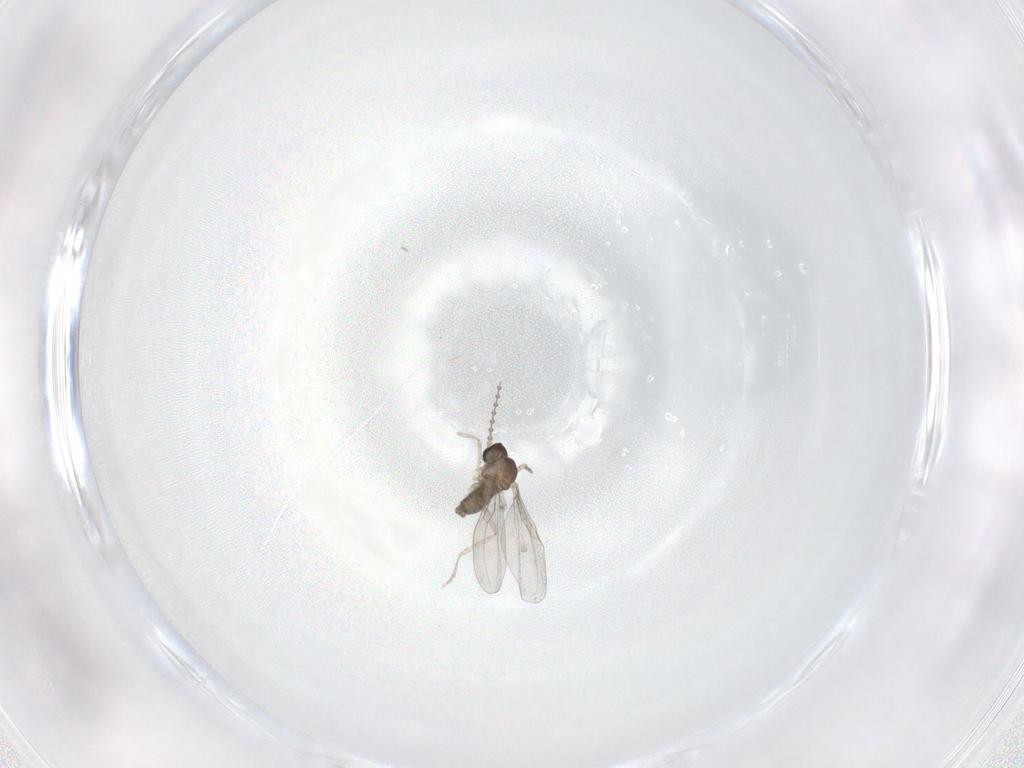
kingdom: Animalia
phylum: Arthropoda
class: Insecta
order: Diptera
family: Cecidomyiidae
